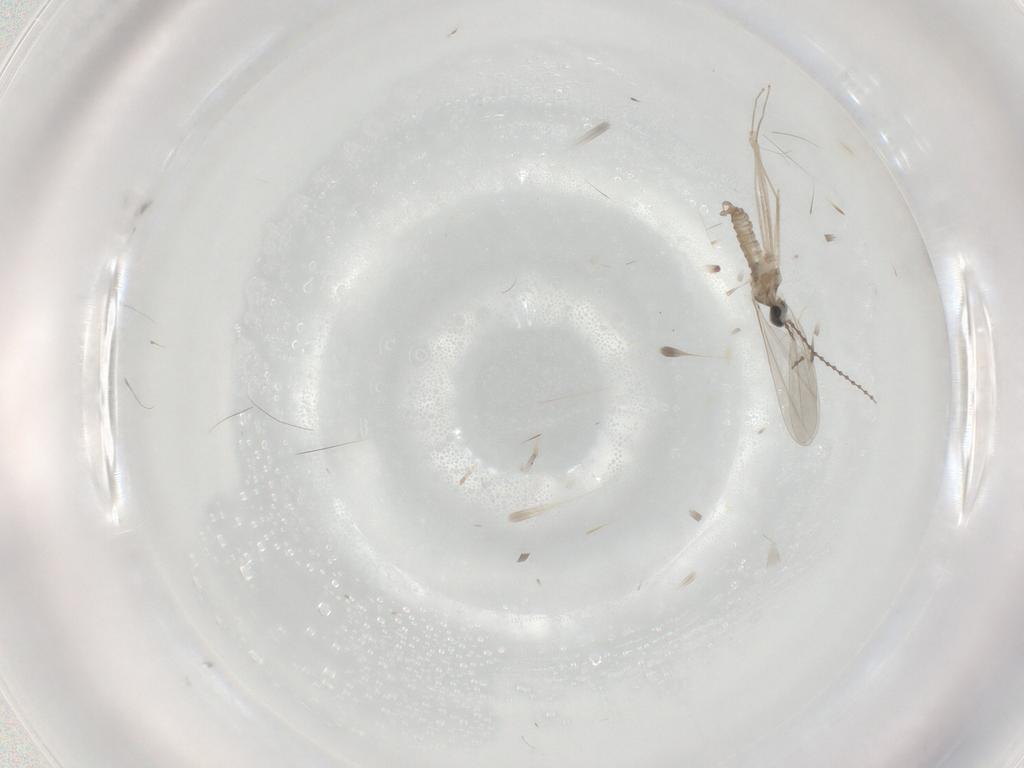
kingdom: Animalia
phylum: Arthropoda
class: Insecta
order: Diptera
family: Cecidomyiidae
